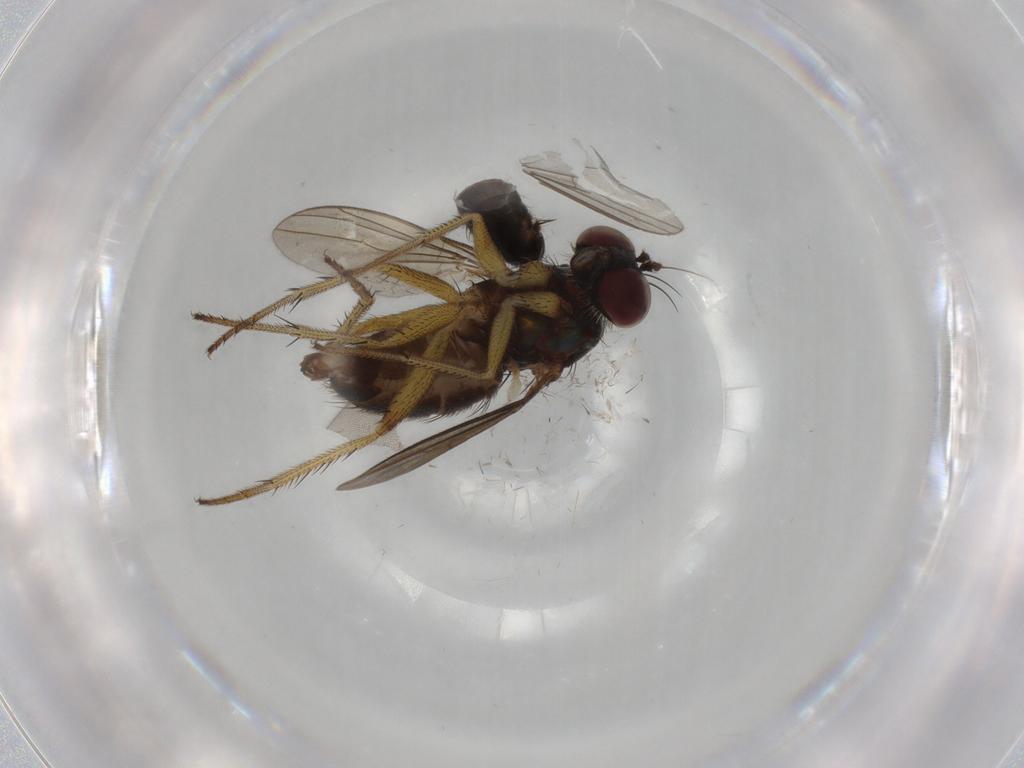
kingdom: Animalia
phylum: Arthropoda
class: Insecta
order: Diptera
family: Dolichopodidae
